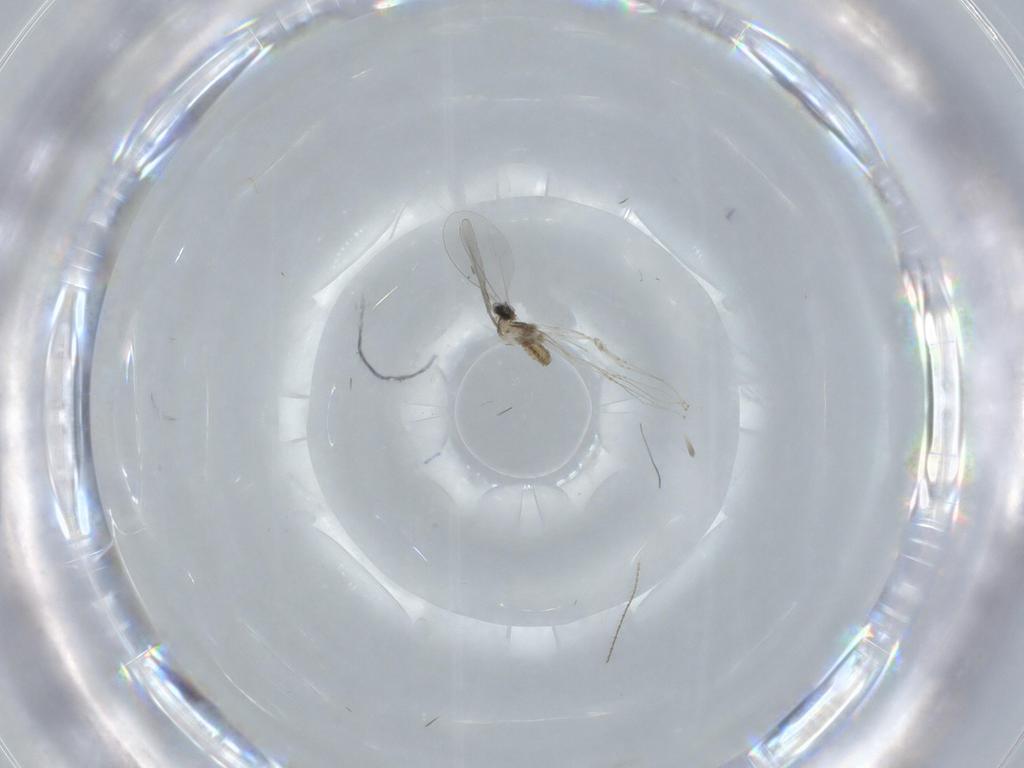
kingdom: Animalia
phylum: Arthropoda
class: Insecta
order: Diptera
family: Cecidomyiidae
